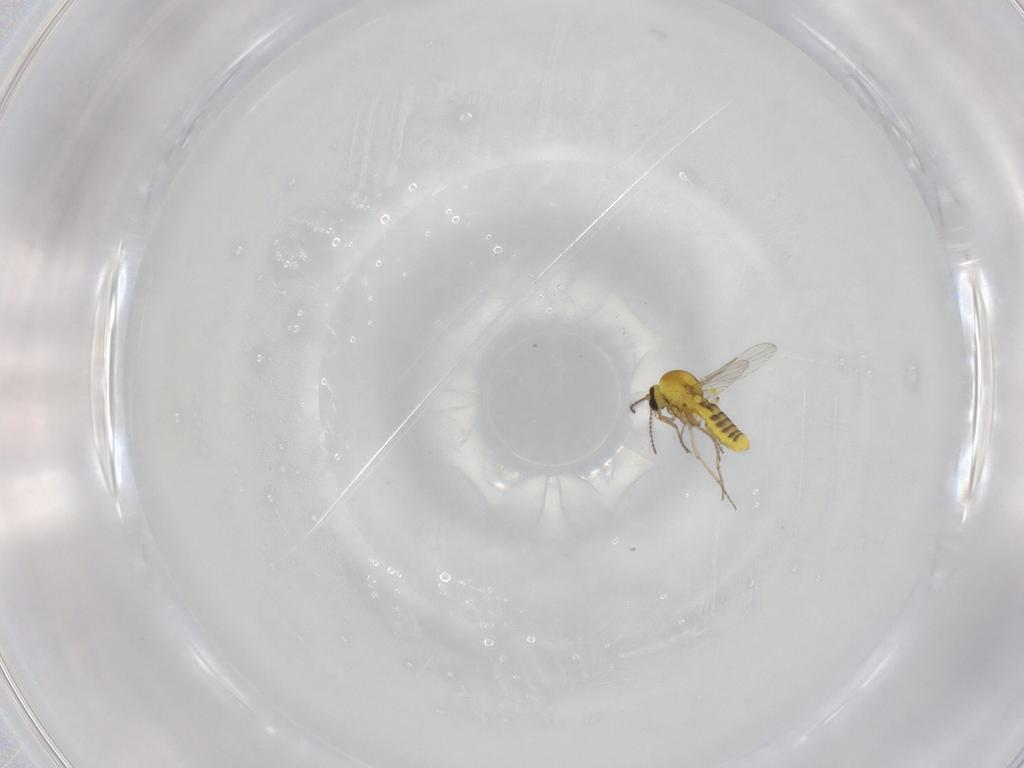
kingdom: Animalia
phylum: Arthropoda
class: Insecta
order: Diptera
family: Ceratopogonidae
